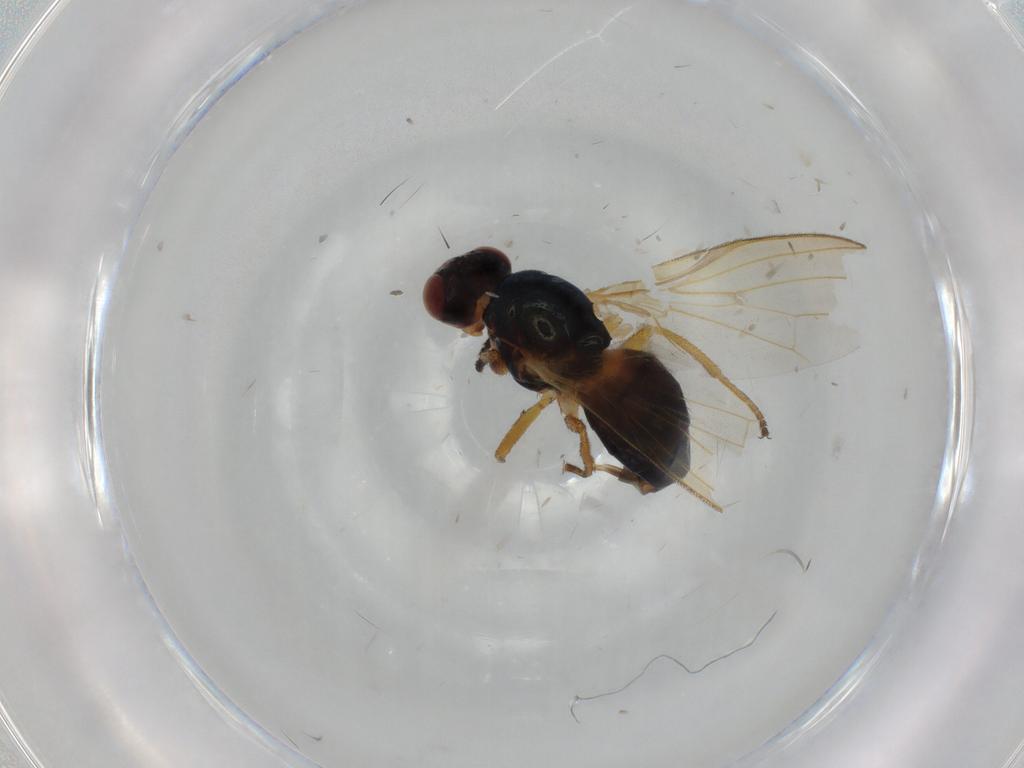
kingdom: Animalia
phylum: Arthropoda
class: Insecta
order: Diptera
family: Piophilidae
